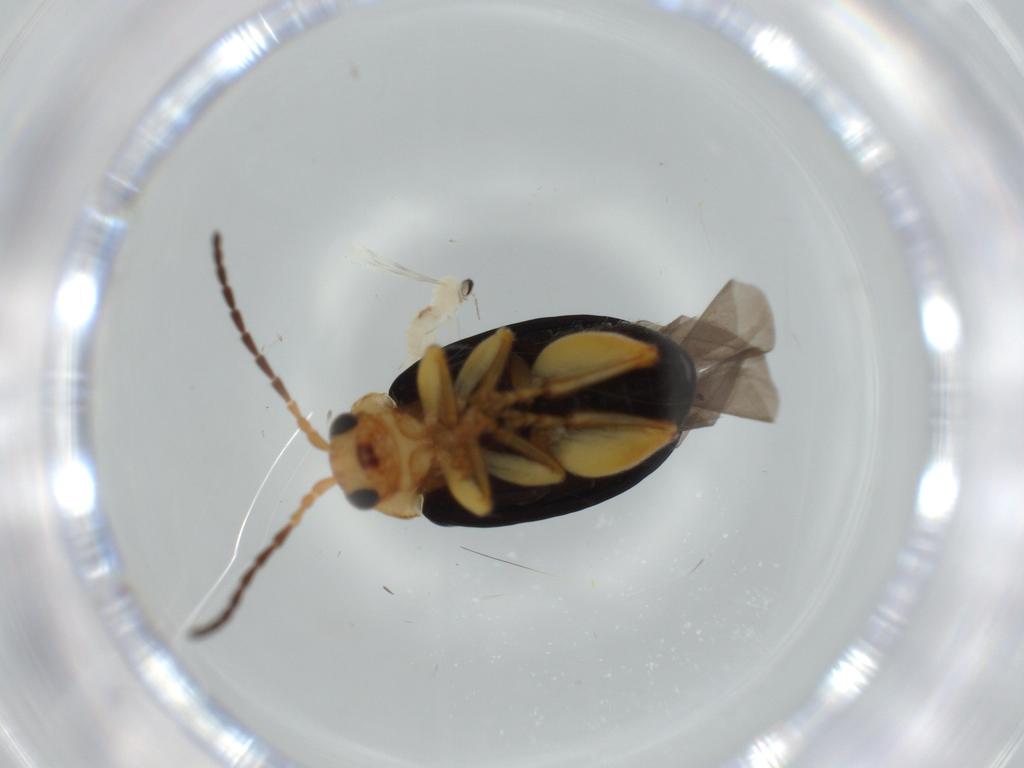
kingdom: Animalia
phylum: Arthropoda
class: Insecta
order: Coleoptera
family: Chrysomelidae
